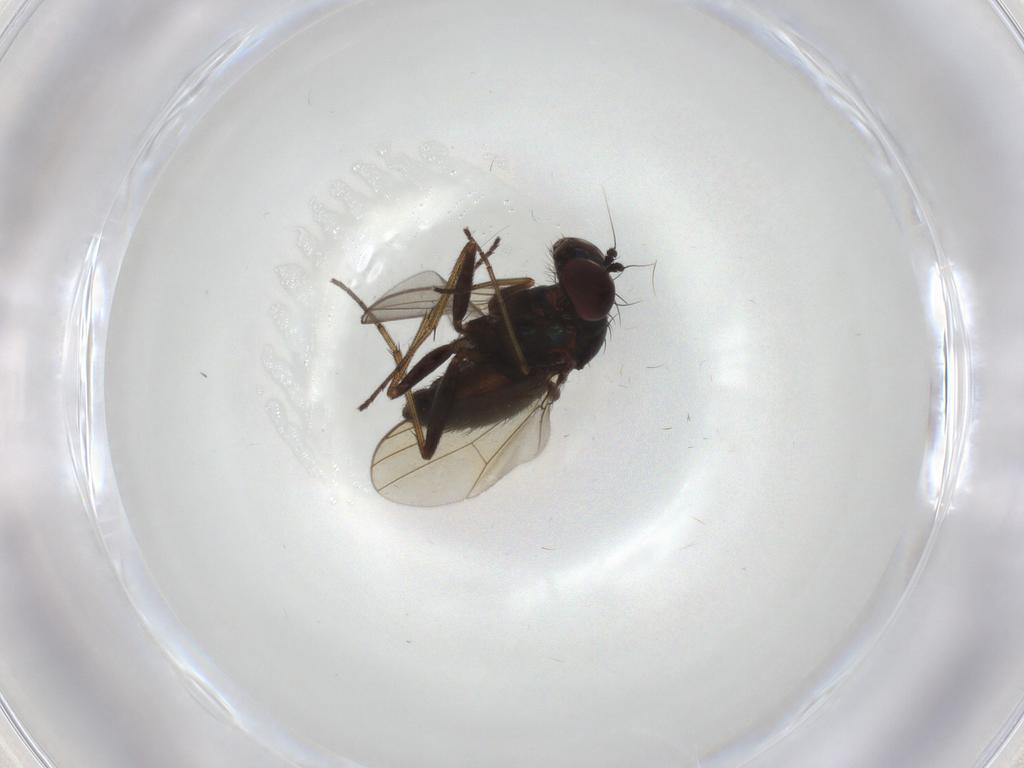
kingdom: Animalia
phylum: Arthropoda
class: Insecta
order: Diptera
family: Dolichopodidae
